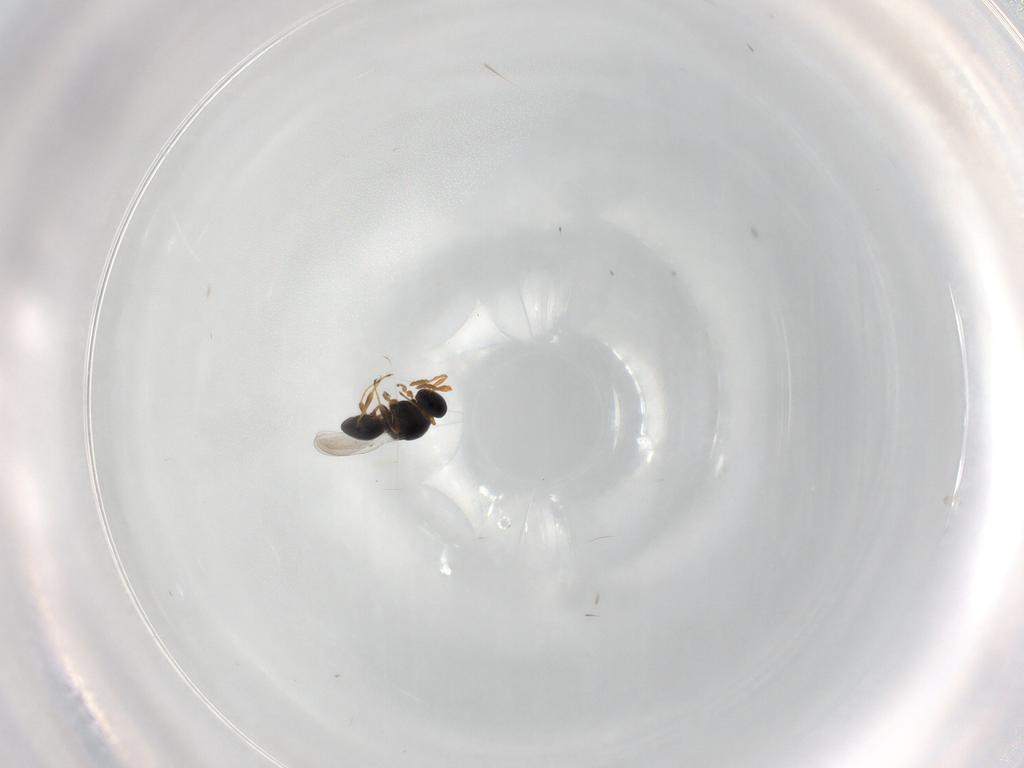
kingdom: Animalia
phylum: Arthropoda
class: Insecta
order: Hymenoptera
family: Platygastridae
